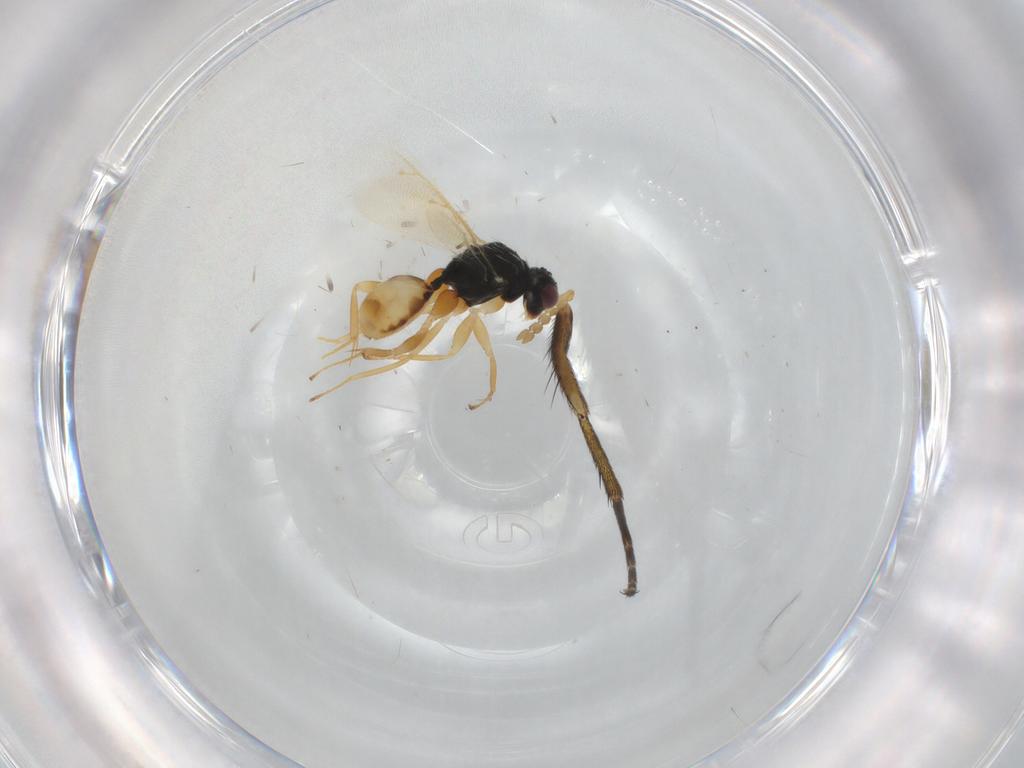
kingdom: Animalia
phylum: Arthropoda
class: Insecta
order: Hymenoptera
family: Eulophidae
